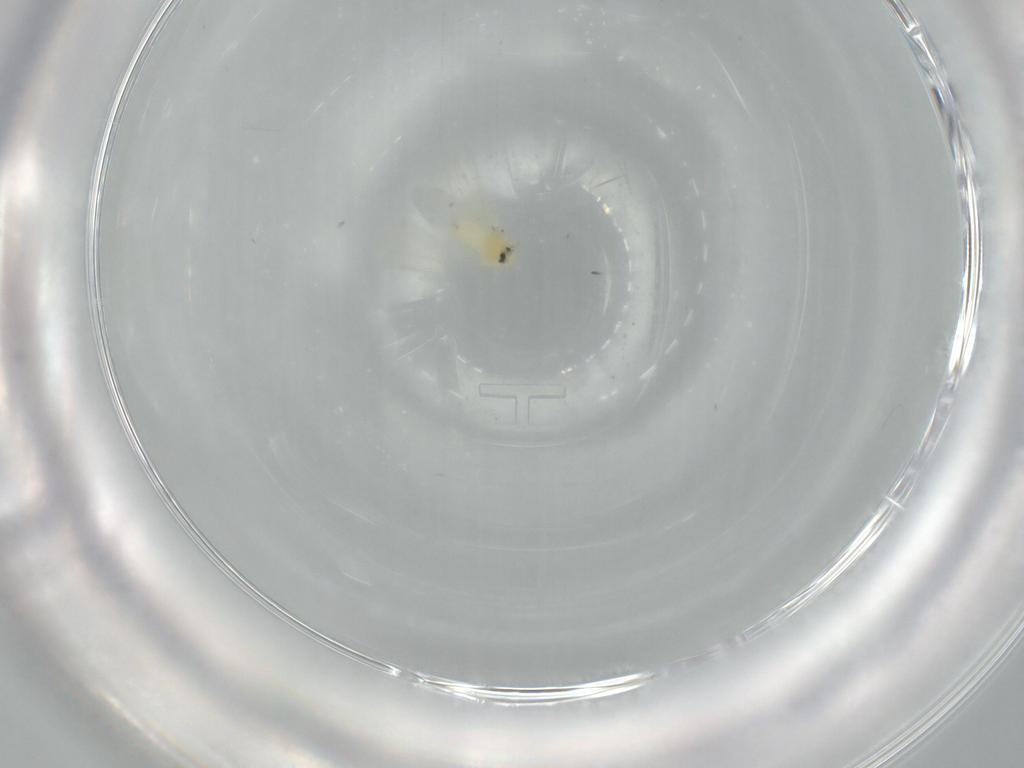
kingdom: Animalia
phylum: Arthropoda
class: Insecta
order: Hemiptera
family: Aleyrodidae
